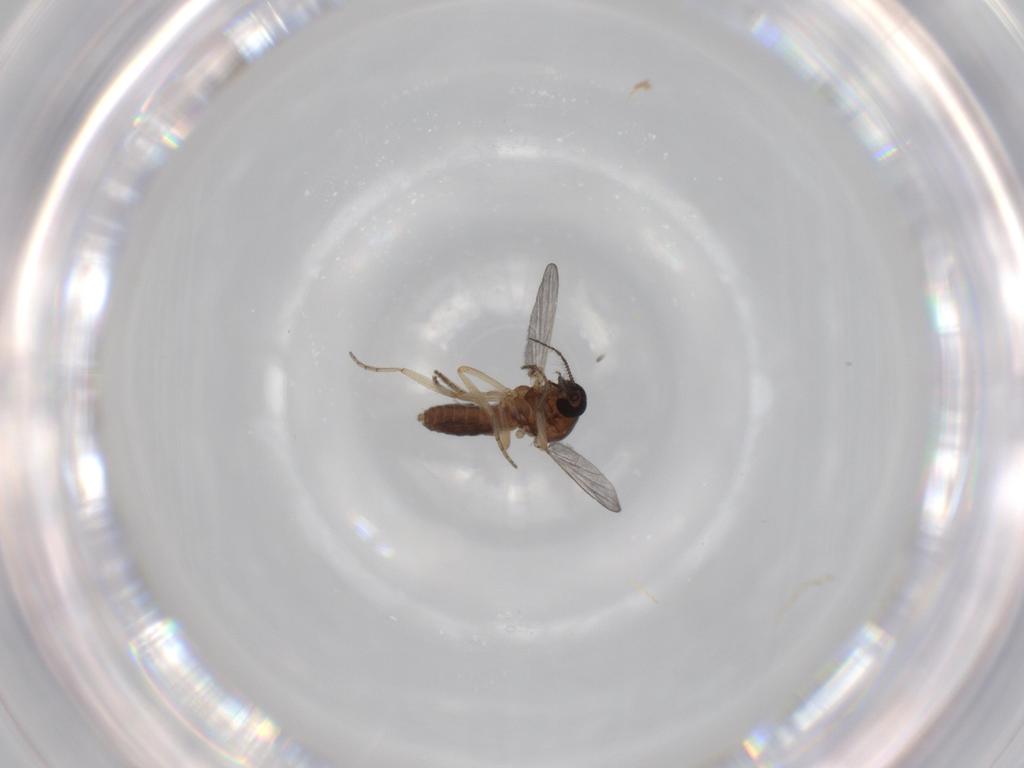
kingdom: Animalia
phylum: Arthropoda
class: Insecta
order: Diptera
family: Ceratopogonidae
